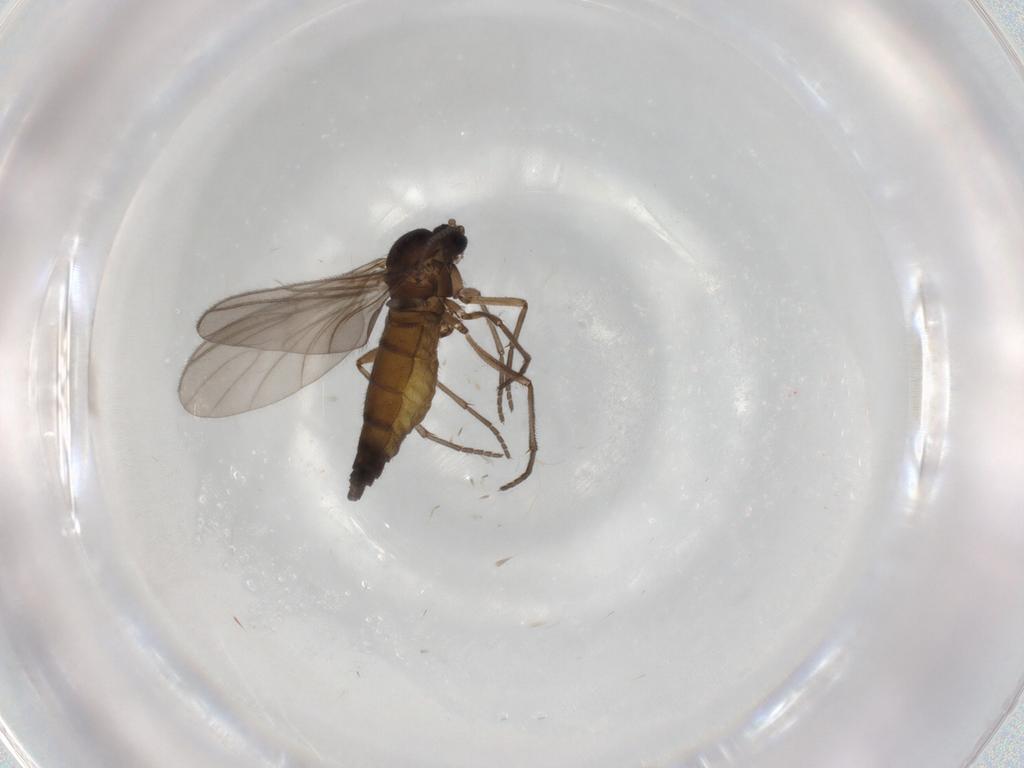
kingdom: Animalia
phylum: Arthropoda
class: Insecta
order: Diptera
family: Sciaridae
